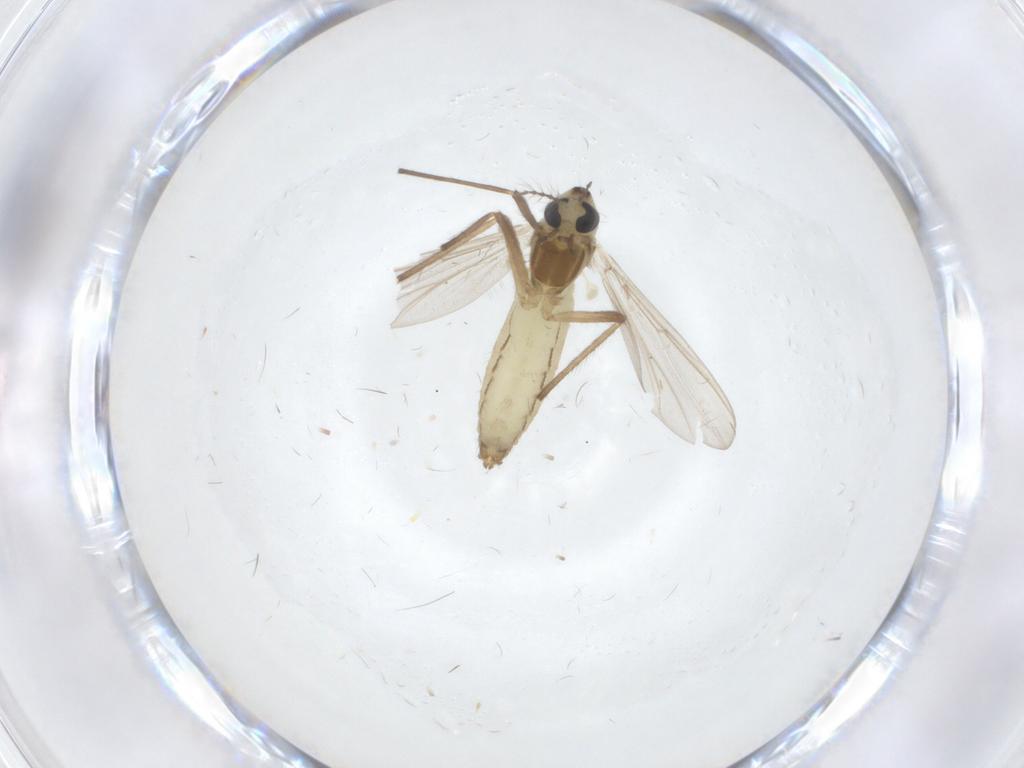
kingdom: Animalia
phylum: Arthropoda
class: Insecta
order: Diptera
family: Chironomidae
